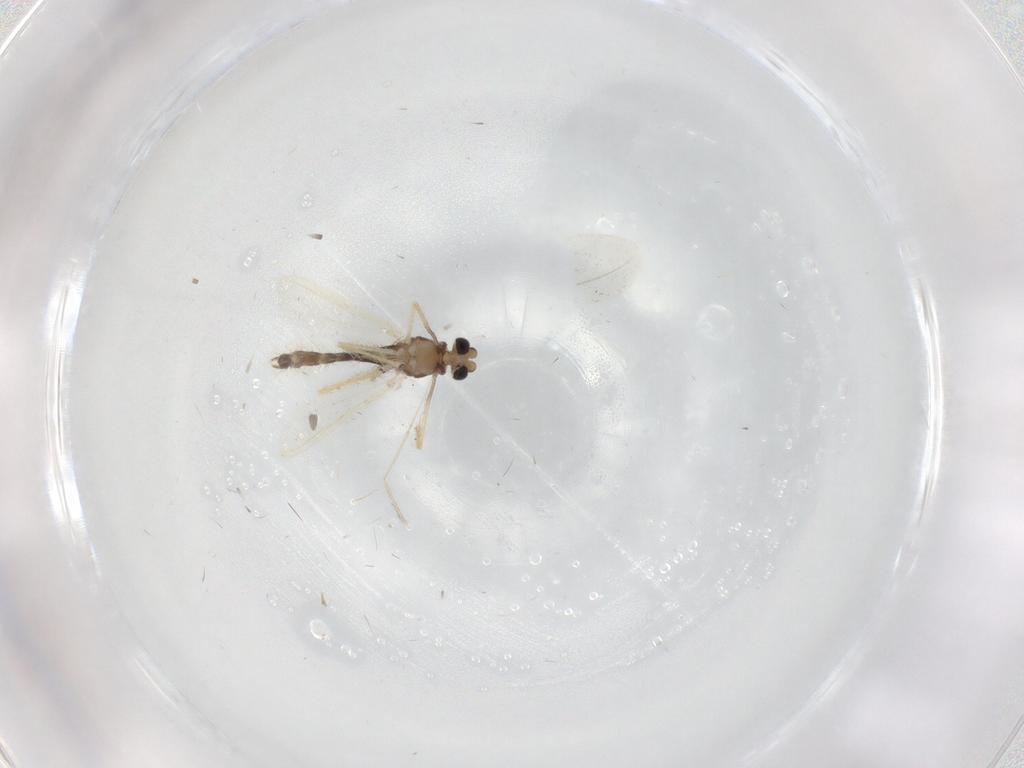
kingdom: Animalia
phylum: Arthropoda
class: Insecta
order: Diptera
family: Chironomidae
